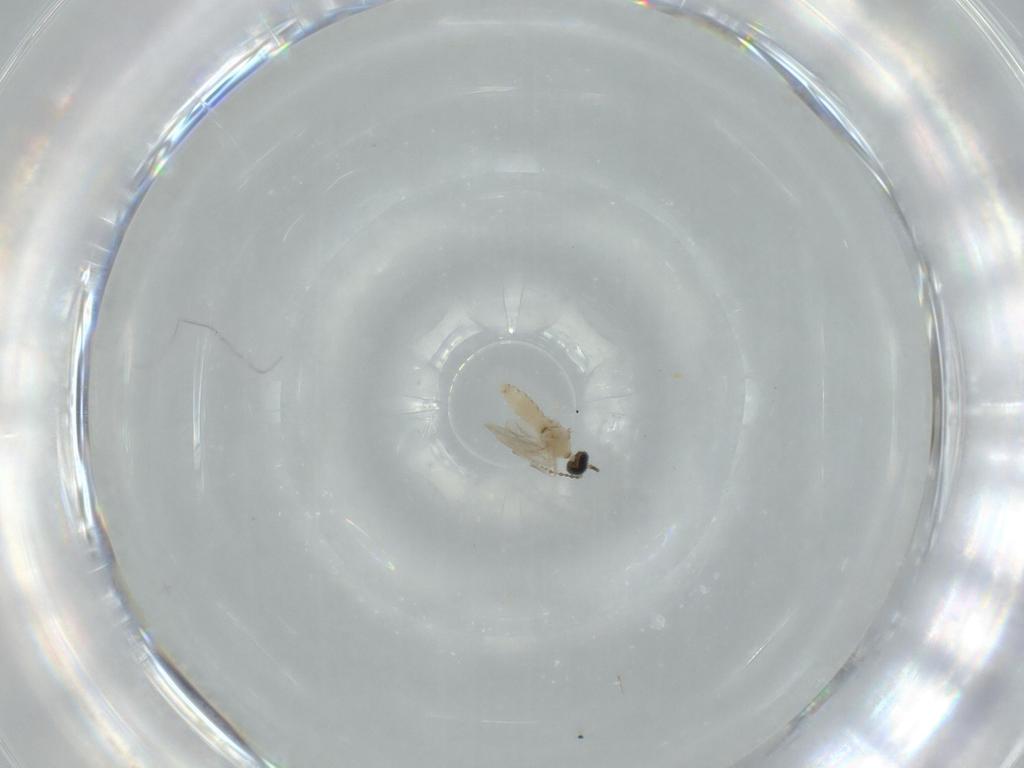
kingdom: Animalia
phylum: Arthropoda
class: Insecta
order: Diptera
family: Cecidomyiidae
